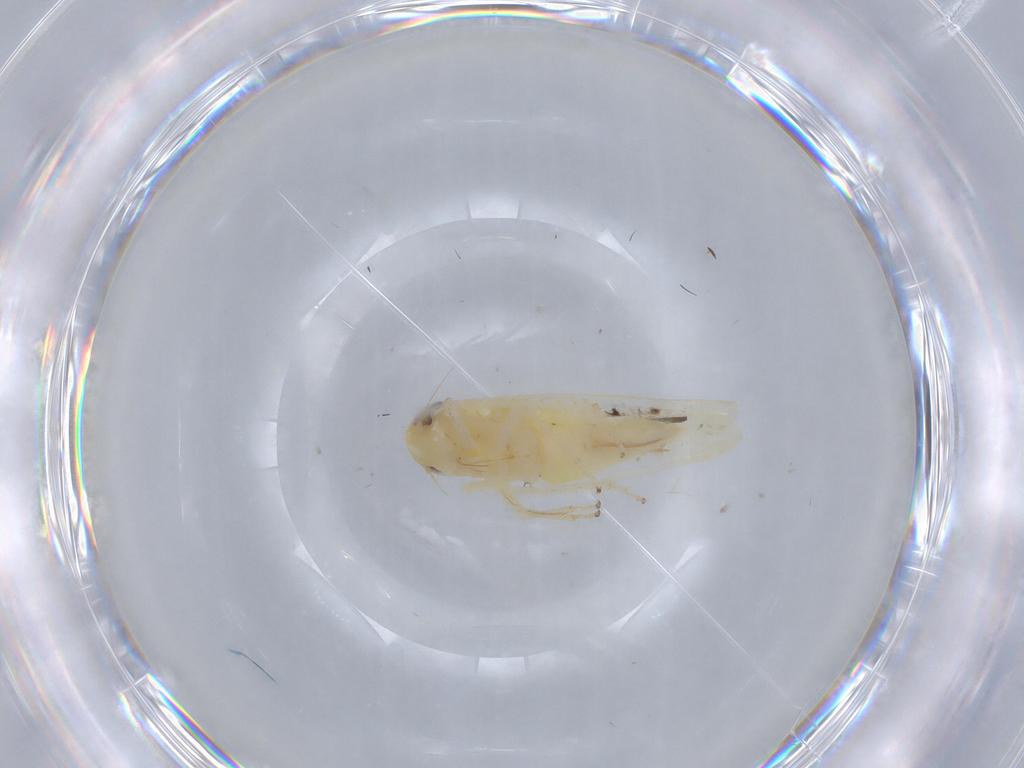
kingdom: Animalia
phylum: Arthropoda
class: Insecta
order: Hemiptera
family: Cicadellidae
